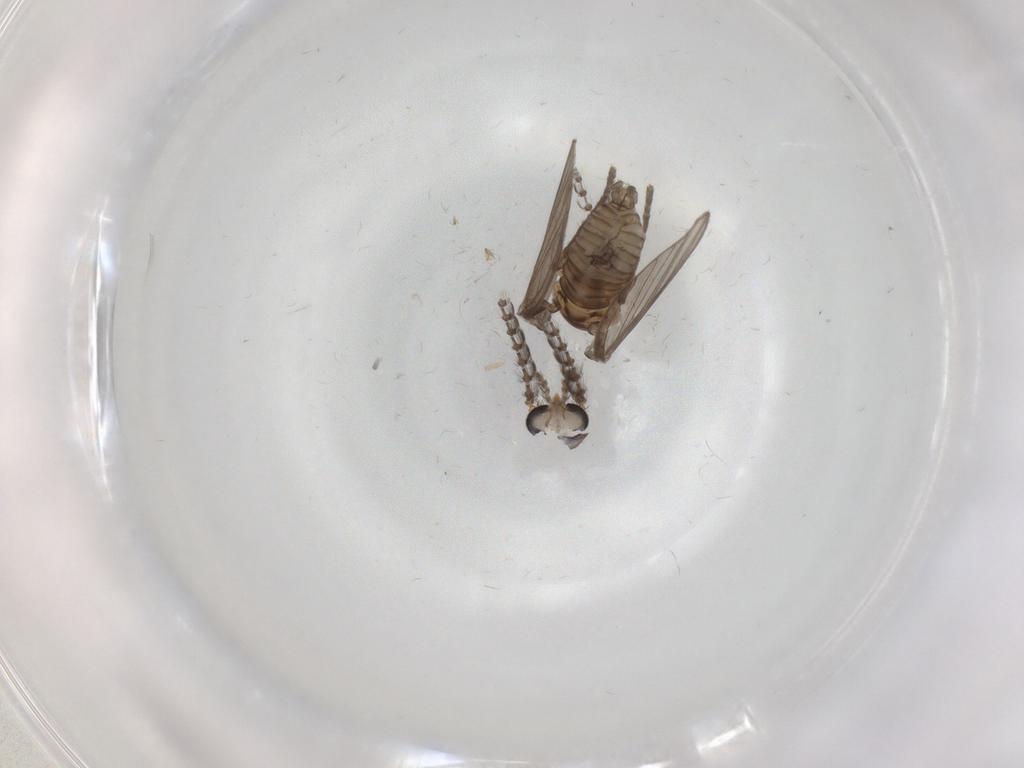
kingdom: Animalia
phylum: Arthropoda
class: Insecta
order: Diptera
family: Psychodidae
